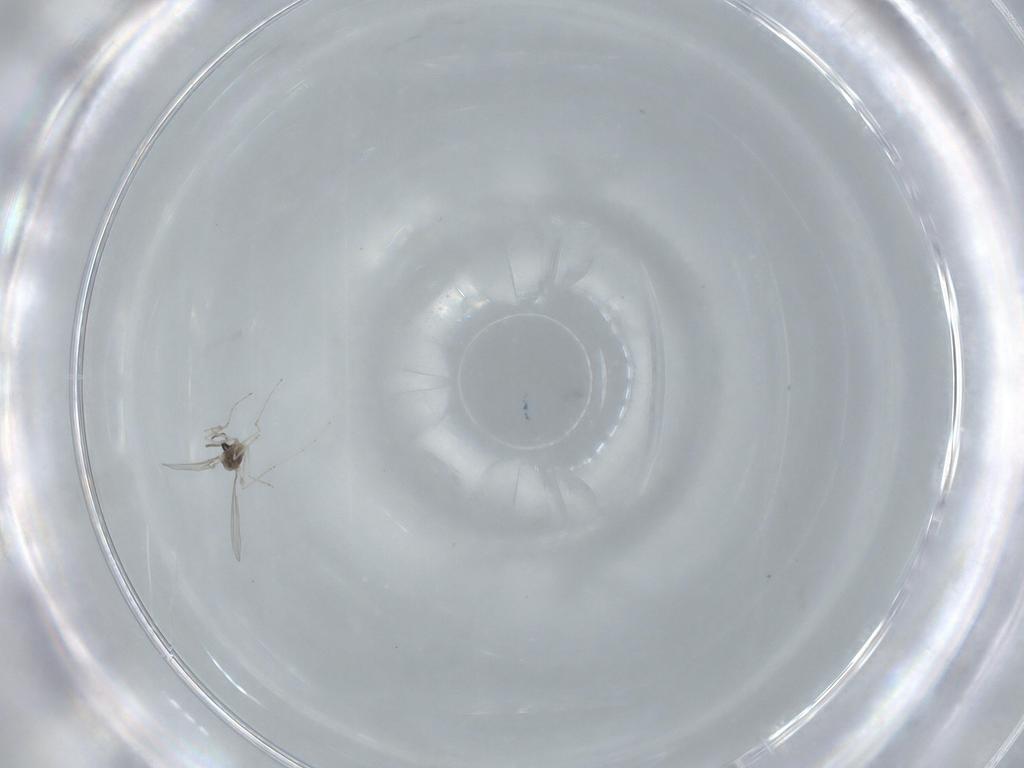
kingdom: Animalia
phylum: Arthropoda
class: Insecta
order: Diptera
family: Cecidomyiidae
